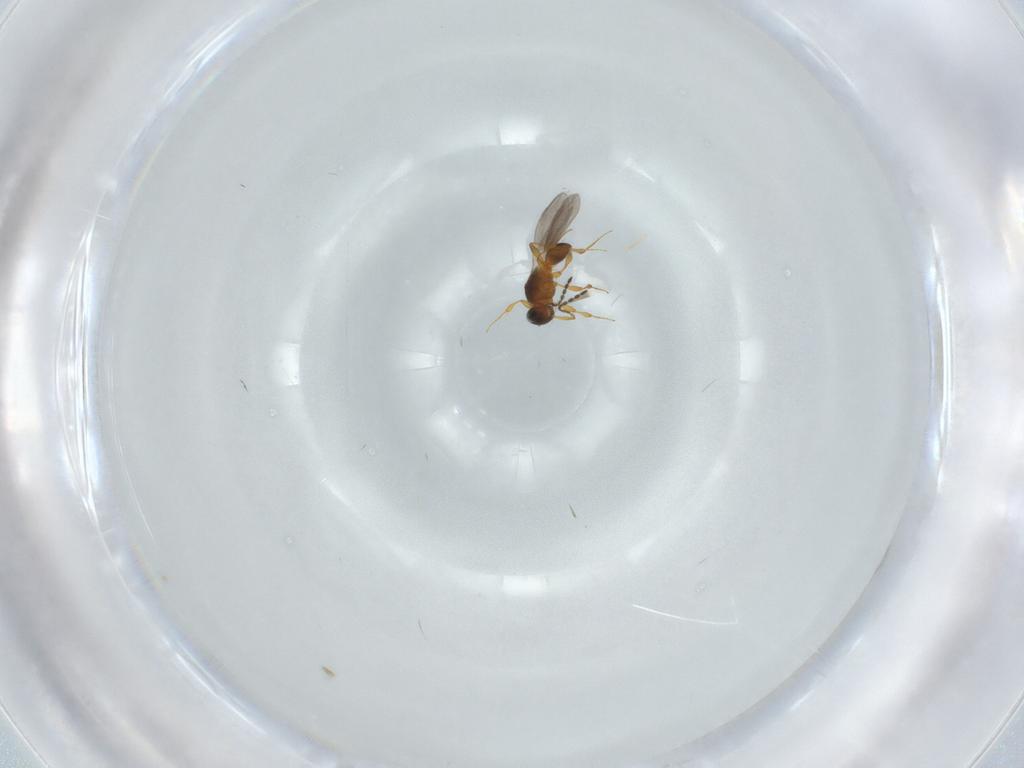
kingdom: Animalia
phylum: Arthropoda
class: Insecta
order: Hymenoptera
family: Platygastridae
